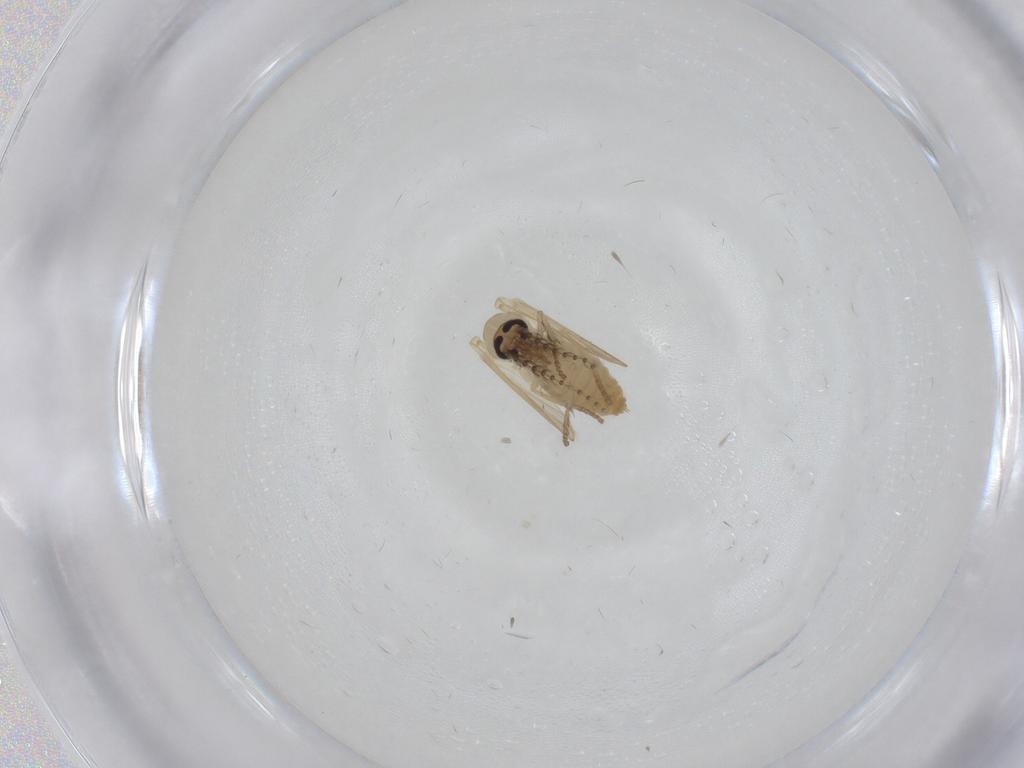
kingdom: Animalia
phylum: Arthropoda
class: Insecta
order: Diptera
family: Psychodidae
